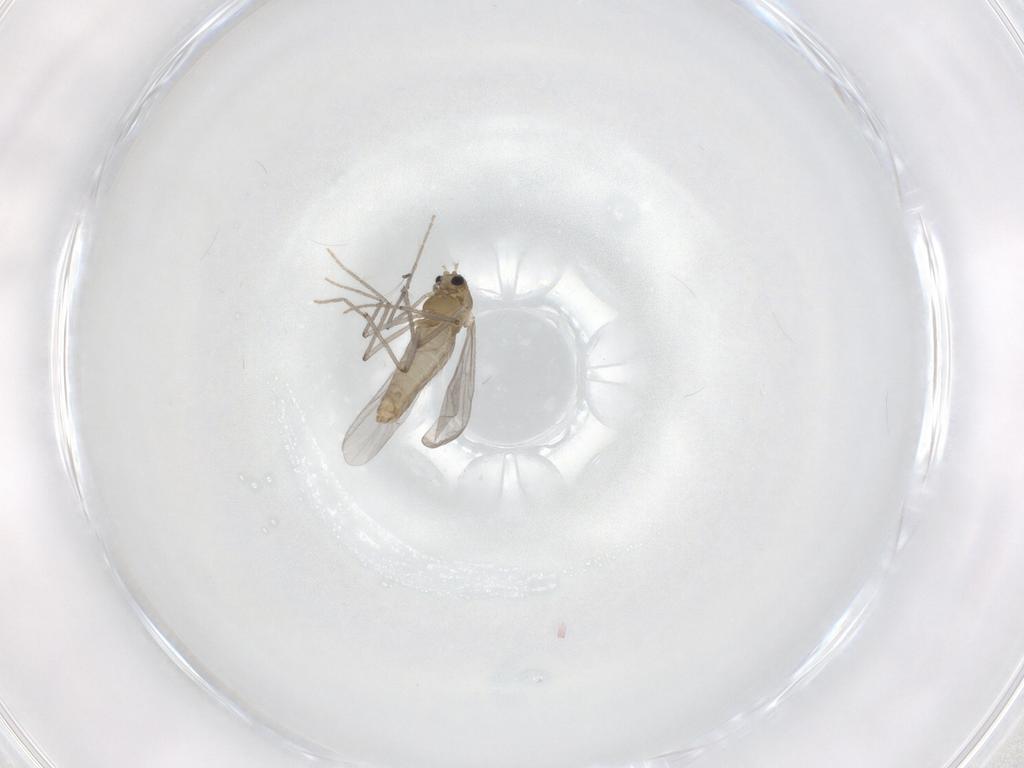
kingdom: Animalia
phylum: Arthropoda
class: Insecta
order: Diptera
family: Chironomidae
